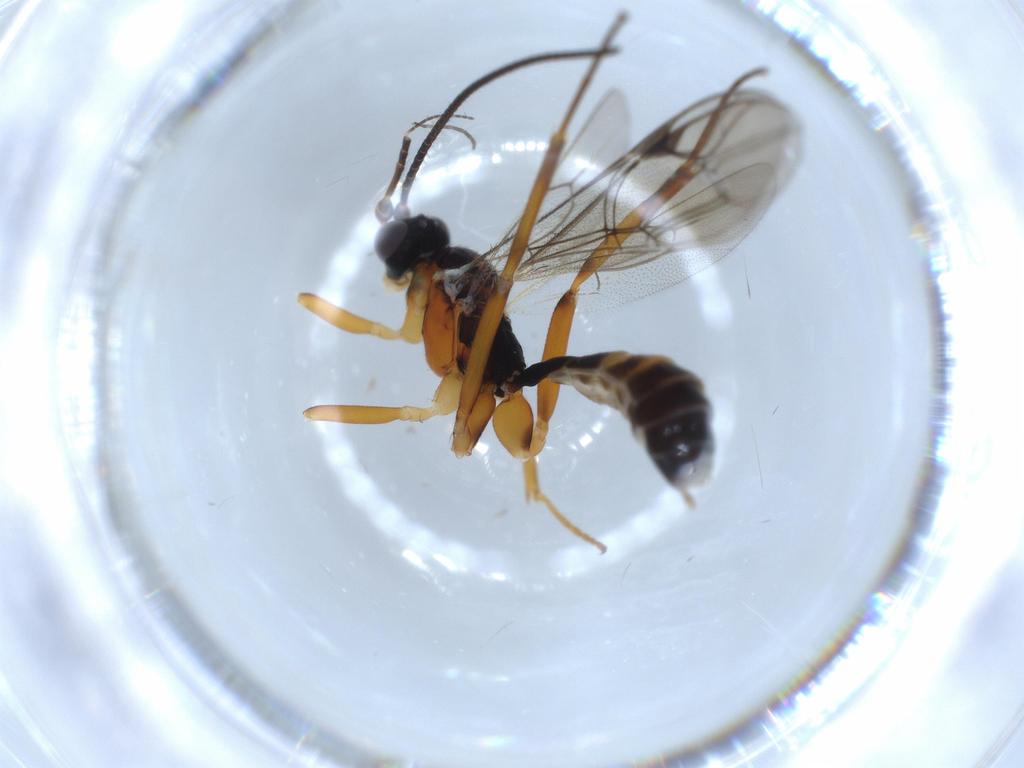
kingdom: Animalia
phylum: Arthropoda
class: Insecta
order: Hymenoptera
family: Ichneumonidae
